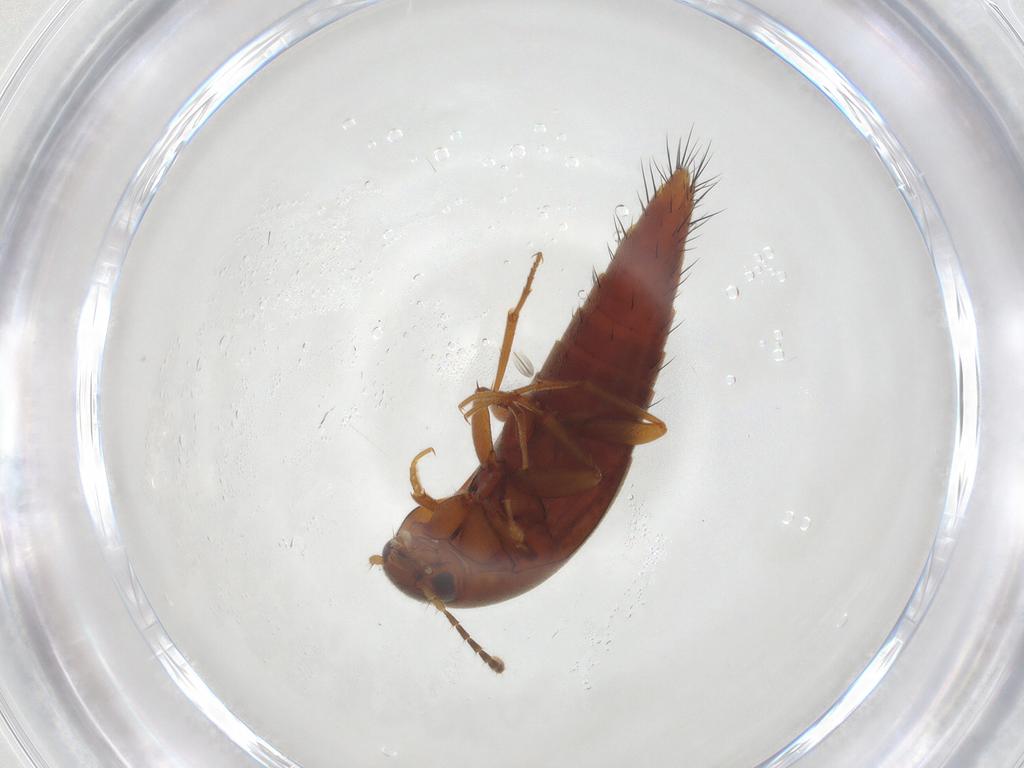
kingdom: Animalia
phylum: Arthropoda
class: Insecta
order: Coleoptera
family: Staphylinidae
